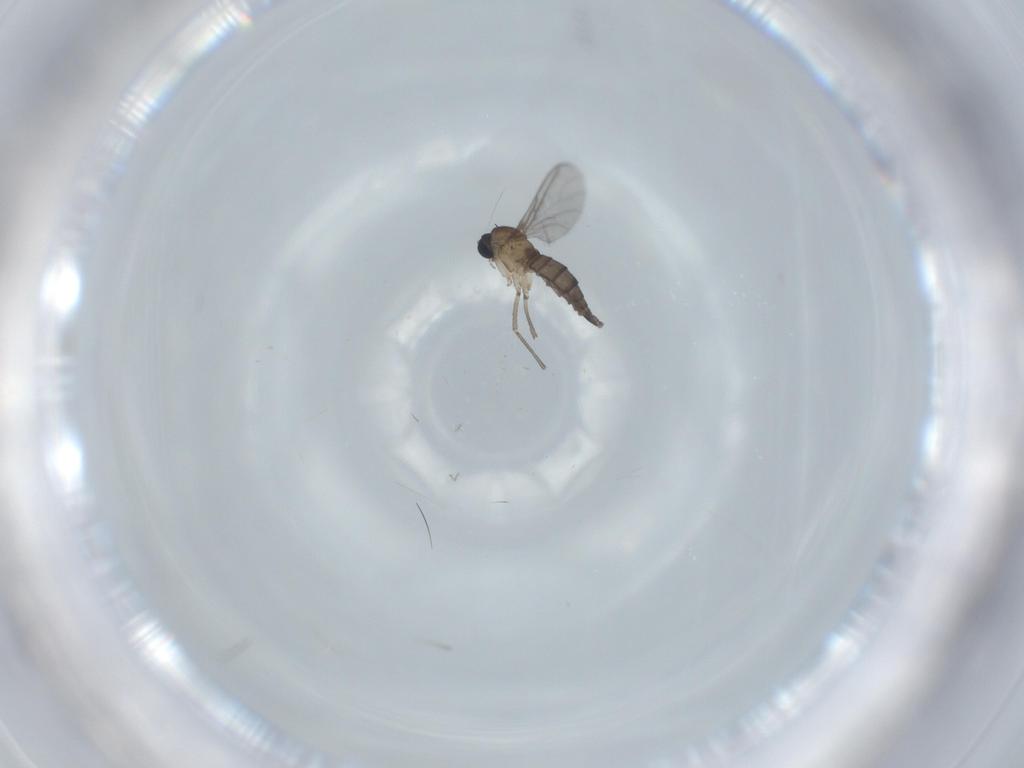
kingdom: Animalia
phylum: Arthropoda
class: Insecta
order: Diptera
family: Sciaridae
